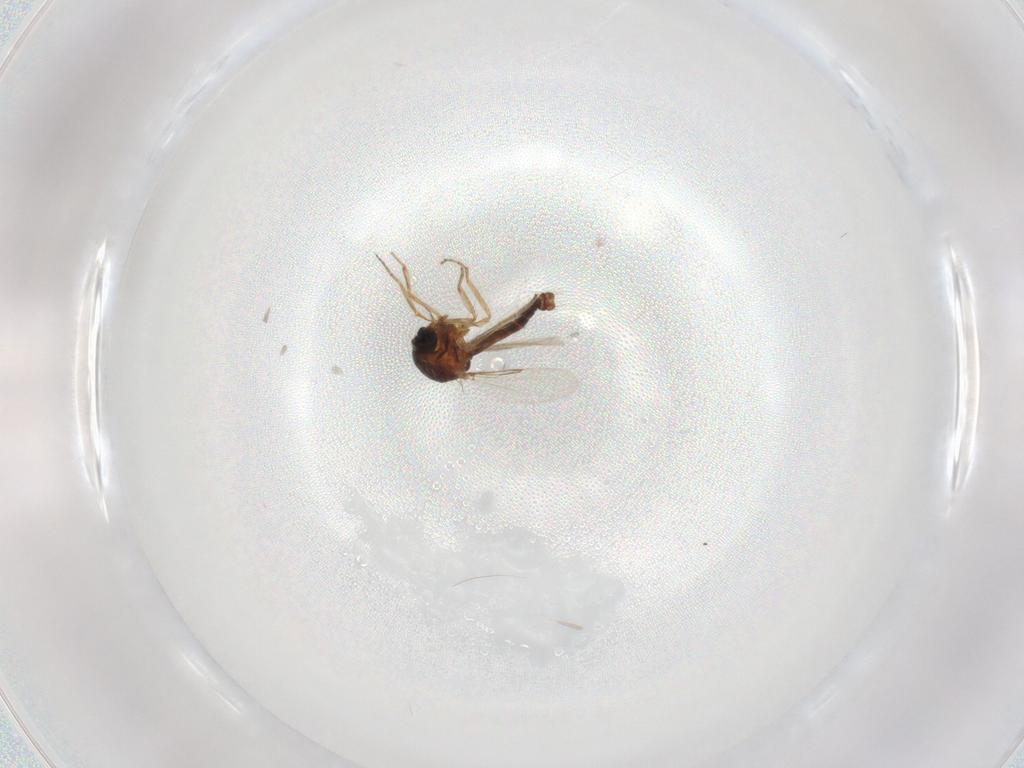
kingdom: Animalia
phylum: Arthropoda
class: Insecta
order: Diptera
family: Ceratopogonidae
